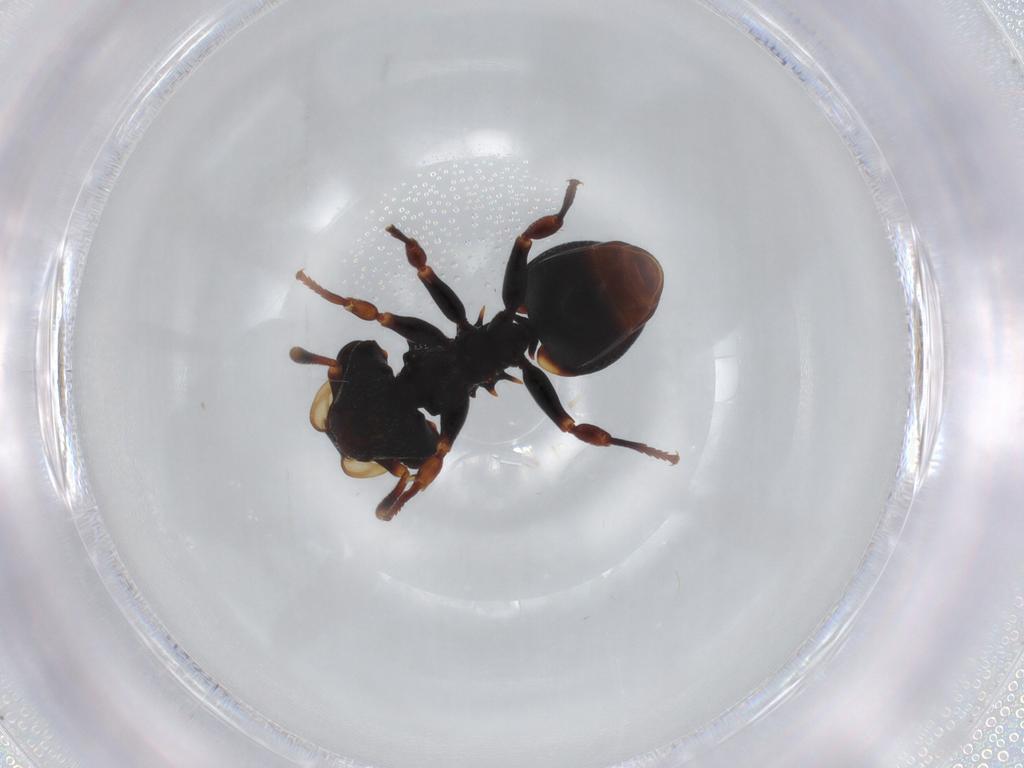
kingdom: Animalia
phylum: Arthropoda
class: Insecta
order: Hymenoptera
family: Formicidae
